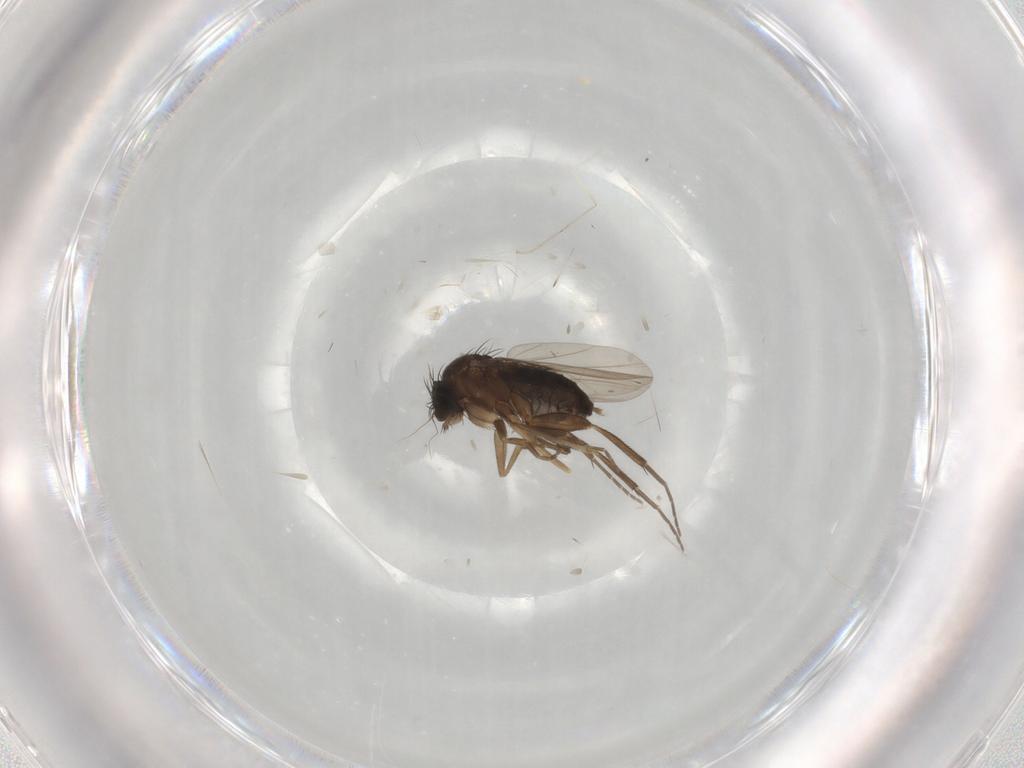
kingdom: Animalia
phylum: Arthropoda
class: Insecta
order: Diptera
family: Phoridae
